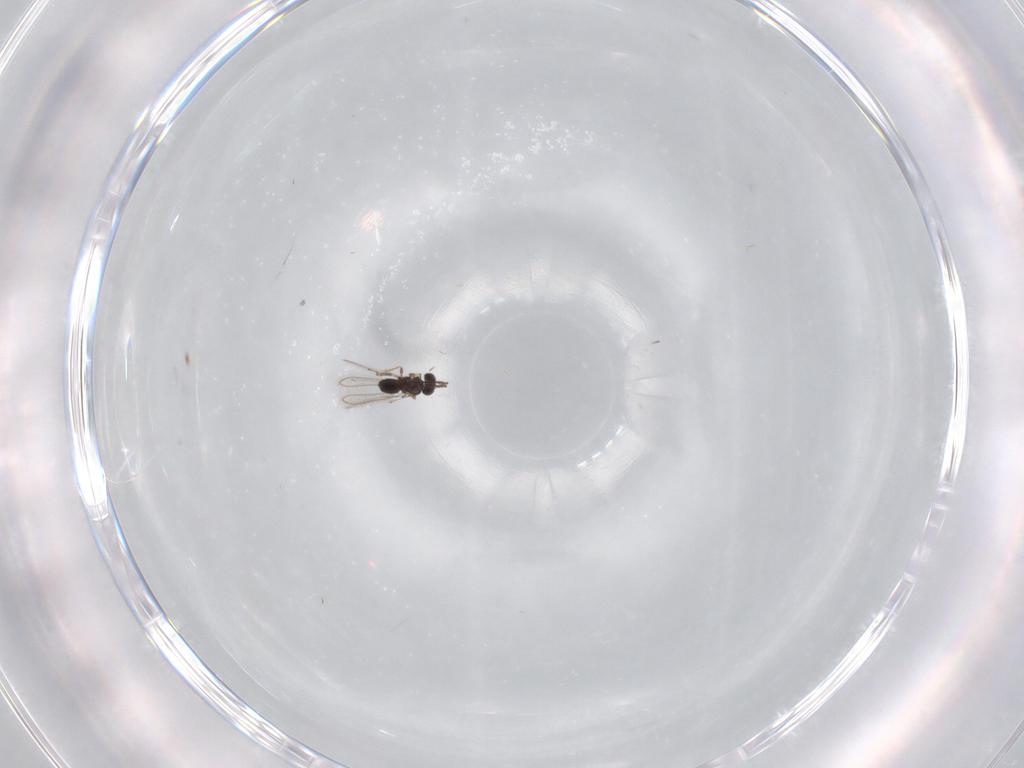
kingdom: Animalia
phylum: Arthropoda
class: Insecta
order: Hymenoptera
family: Mymaridae
